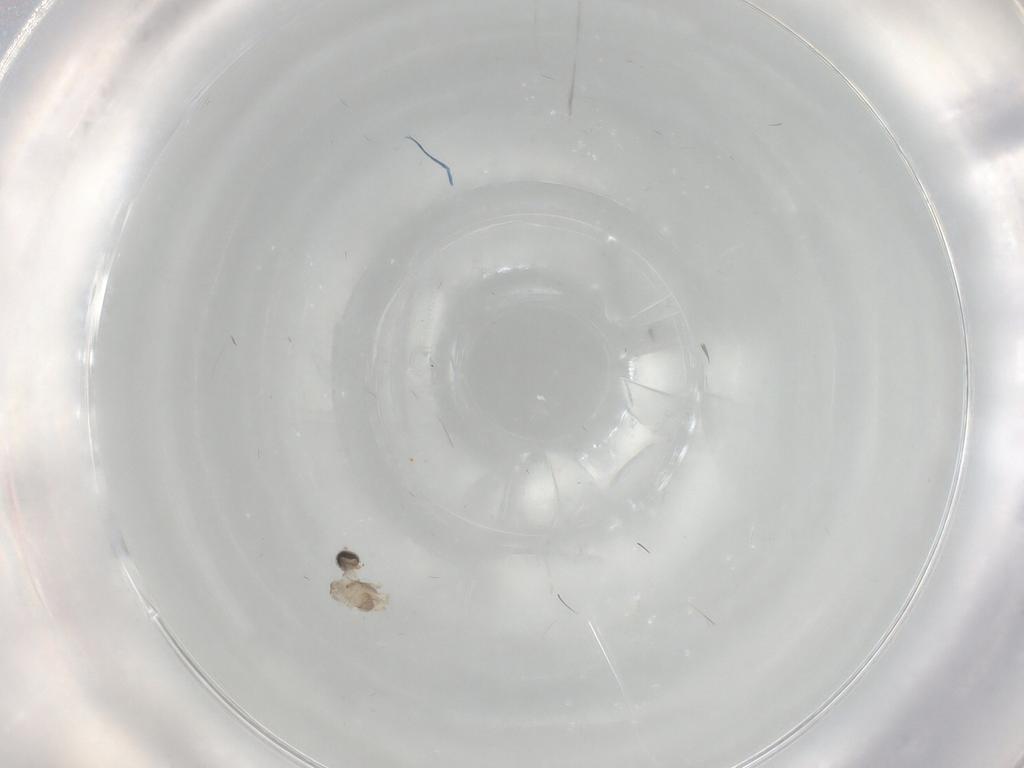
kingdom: Animalia
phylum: Arthropoda
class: Insecta
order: Diptera
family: Cecidomyiidae
